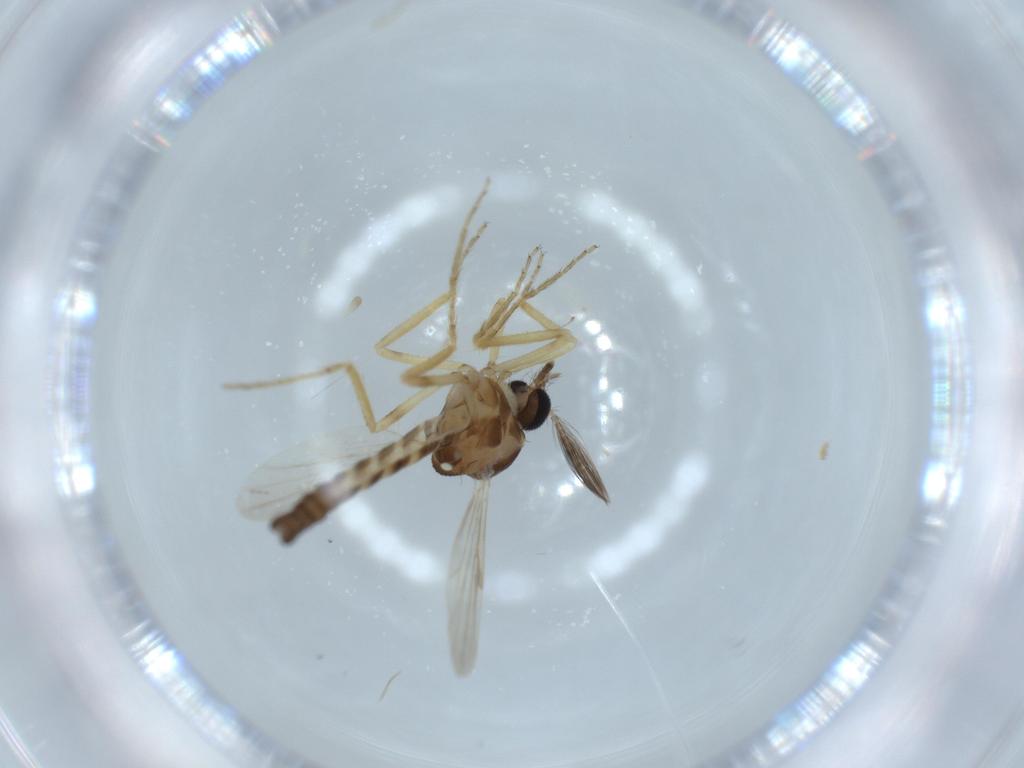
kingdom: Animalia
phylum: Arthropoda
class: Insecta
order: Diptera
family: Ceratopogonidae
